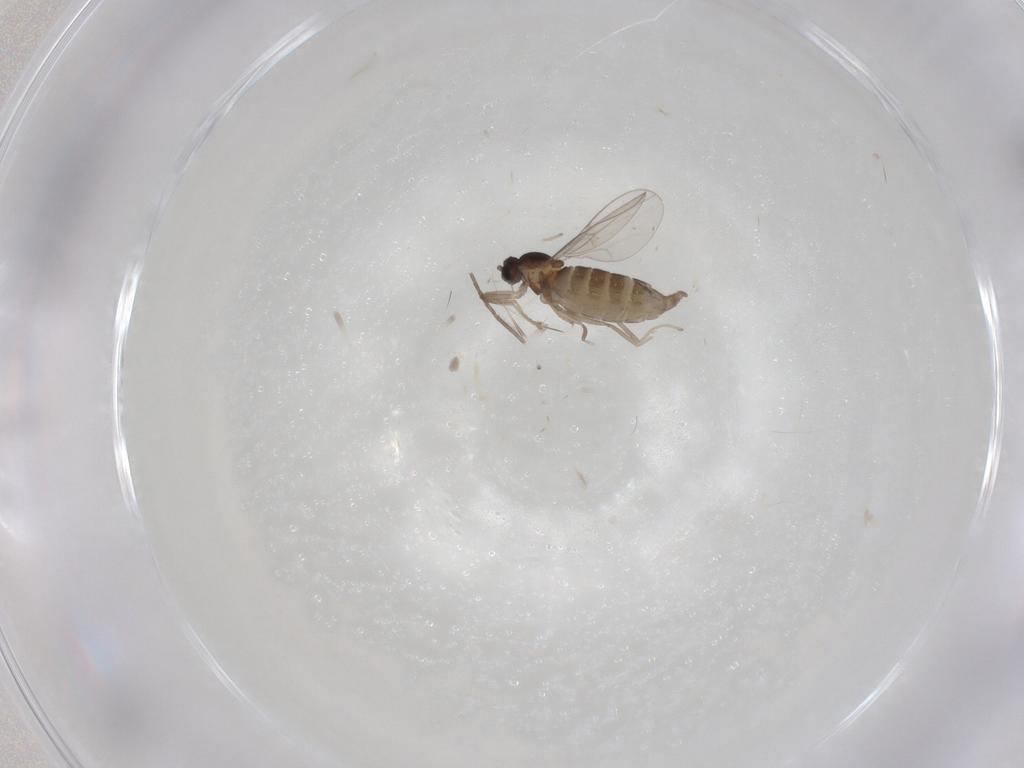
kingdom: Animalia
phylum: Arthropoda
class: Insecta
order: Diptera
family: Cecidomyiidae
